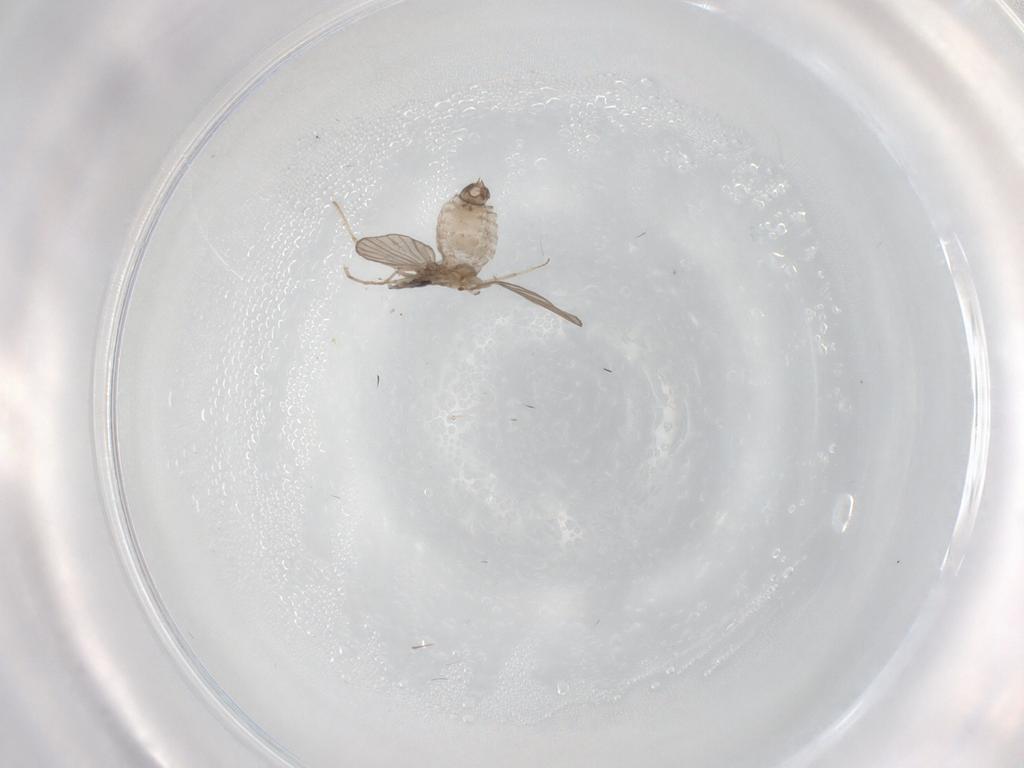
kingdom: Animalia
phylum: Arthropoda
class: Insecta
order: Diptera
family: Psychodidae
